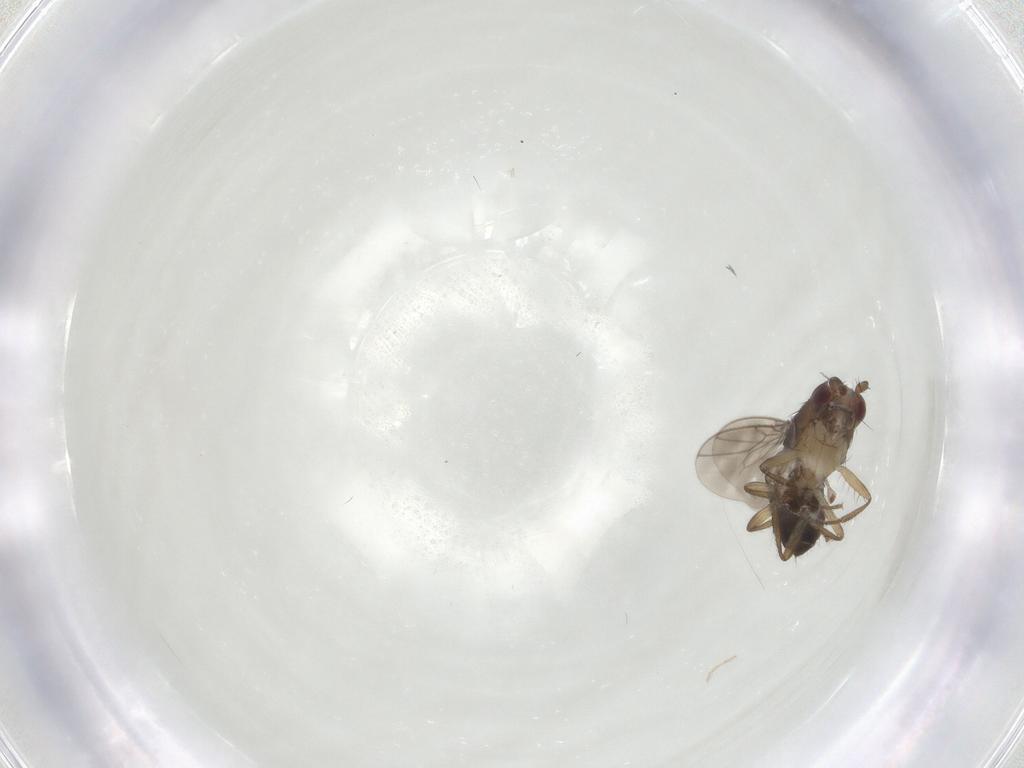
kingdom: Animalia
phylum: Arthropoda
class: Insecta
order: Diptera
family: Sphaeroceridae
